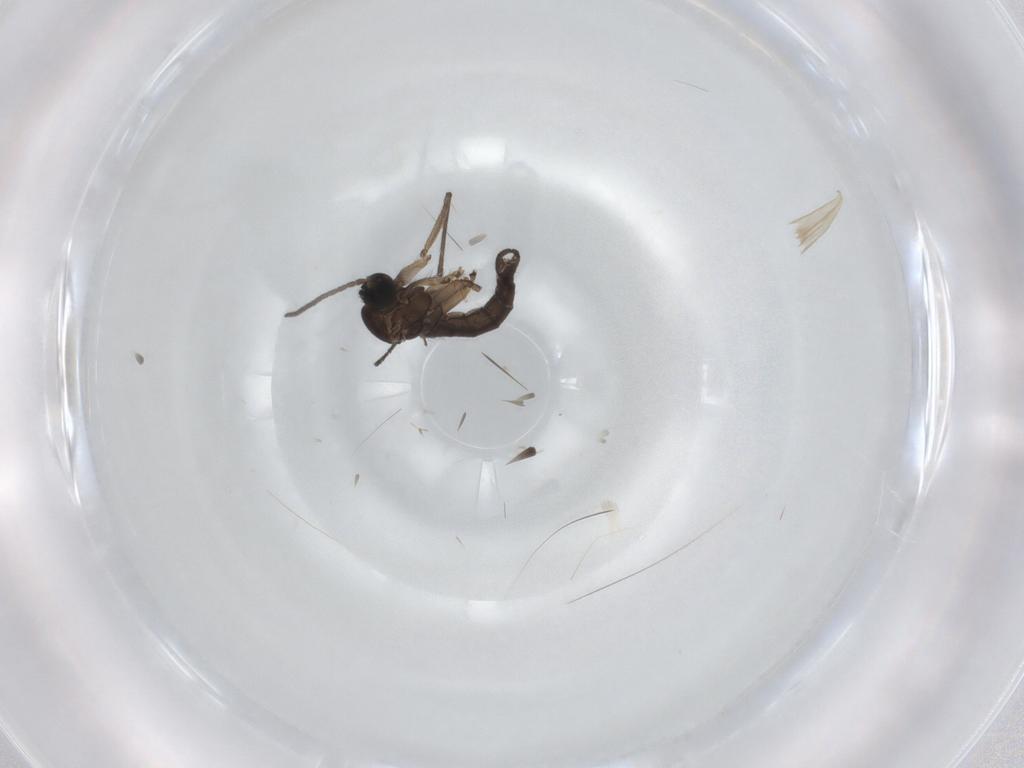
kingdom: Animalia
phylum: Arthropoda
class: Insecta
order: Diptera
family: Sciaridae
